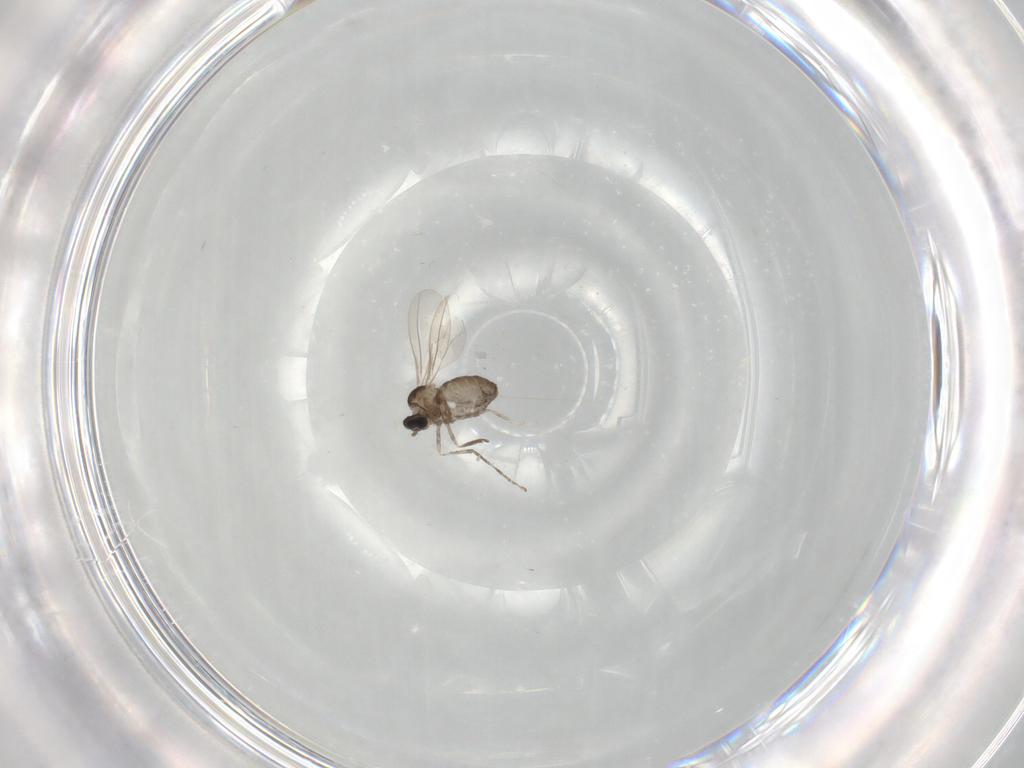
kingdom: Animalia
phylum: Arthropoda
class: Insecta
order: Diptera
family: Cecidomyiidae
